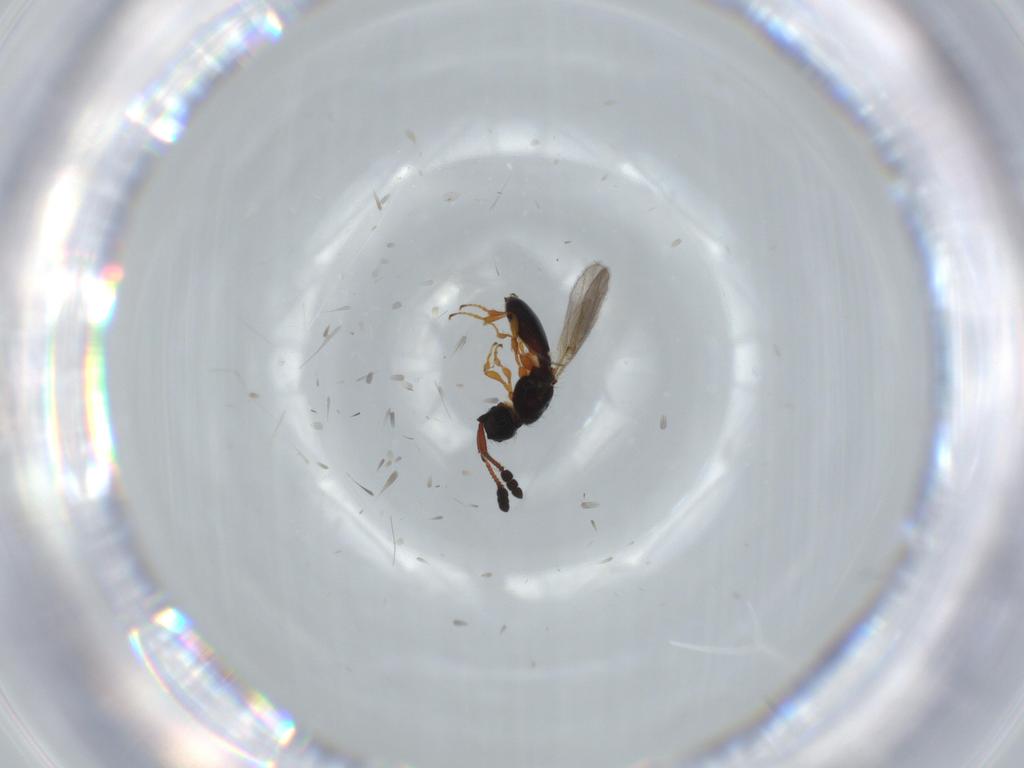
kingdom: Animalia
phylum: Arthropoda
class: Insecta
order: Hymenoptera
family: Diapriidae
